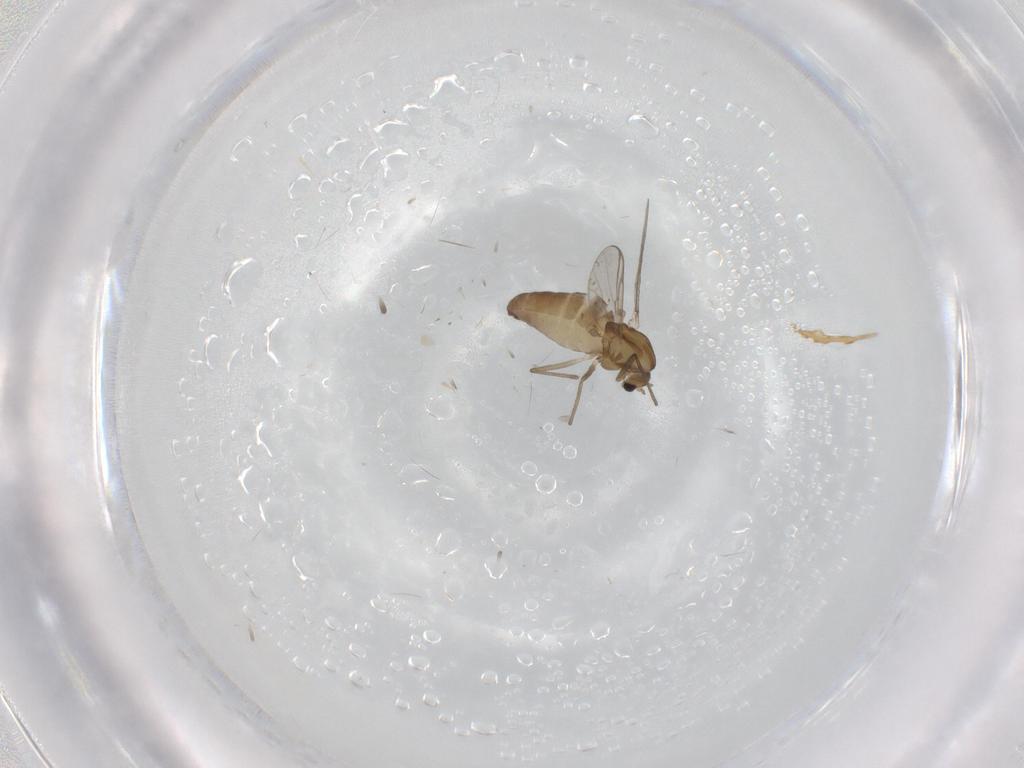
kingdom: Animalia
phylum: Arthropoda
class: Insecta
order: Diptera
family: Chironomidae
